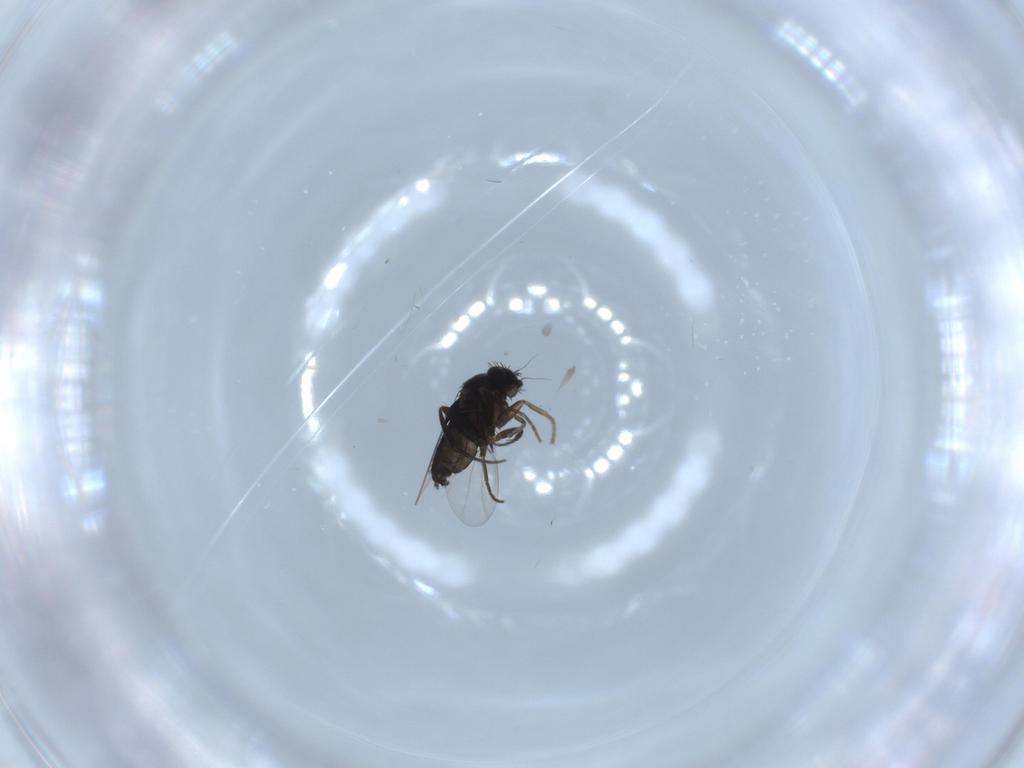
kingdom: Animalia
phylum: Arthropoda
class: Insecta
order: Diptera
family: Phoridae
